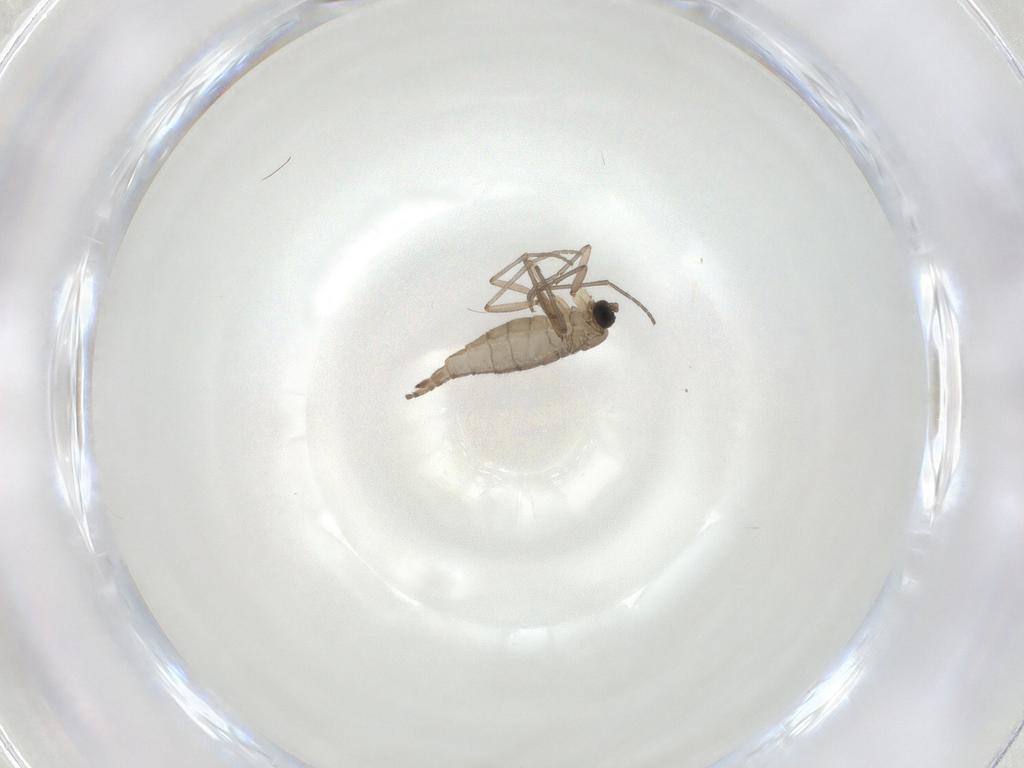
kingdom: Animalia
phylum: Arthropoda
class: Insecta
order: Diptera
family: Sciaridae
